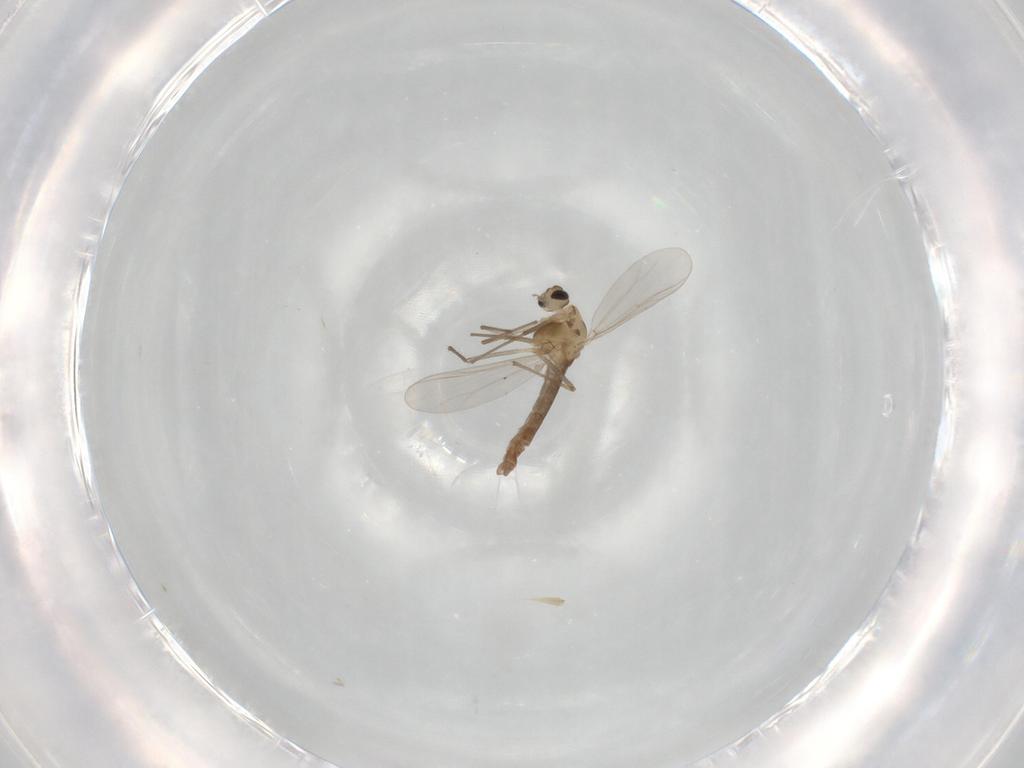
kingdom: Animalia
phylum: Arthropoda
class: Insecta
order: Diptera
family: Chironomidae
